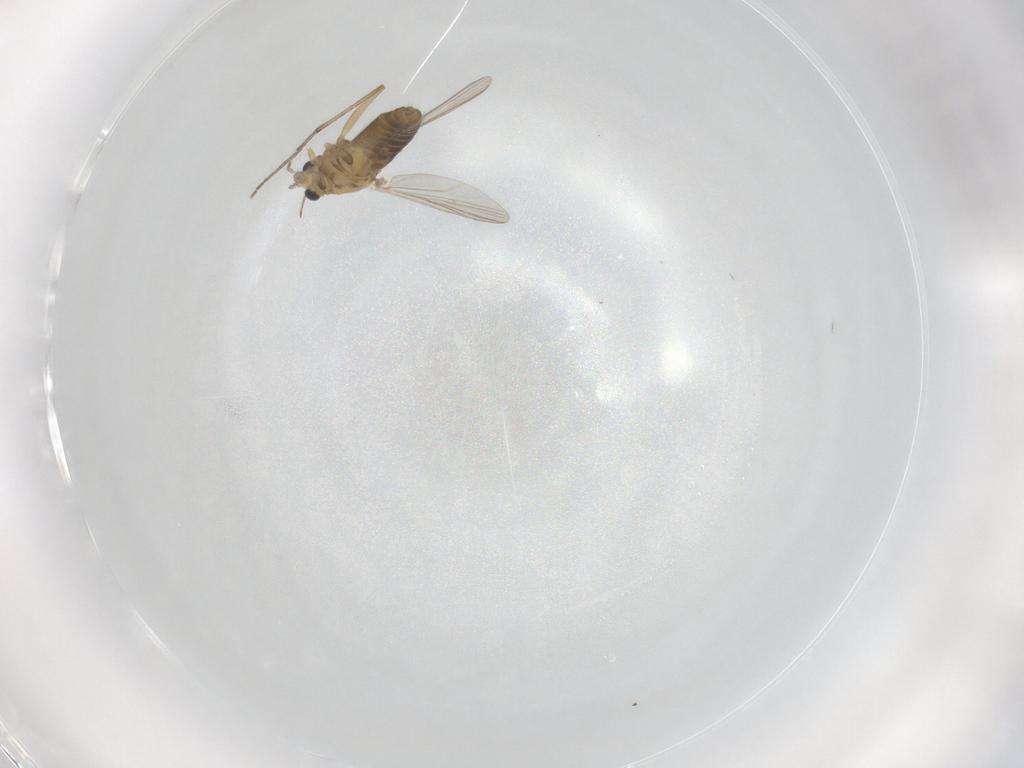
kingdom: Animalia
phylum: Arthropoda
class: Insecta
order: Diptera
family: Chironomidae
